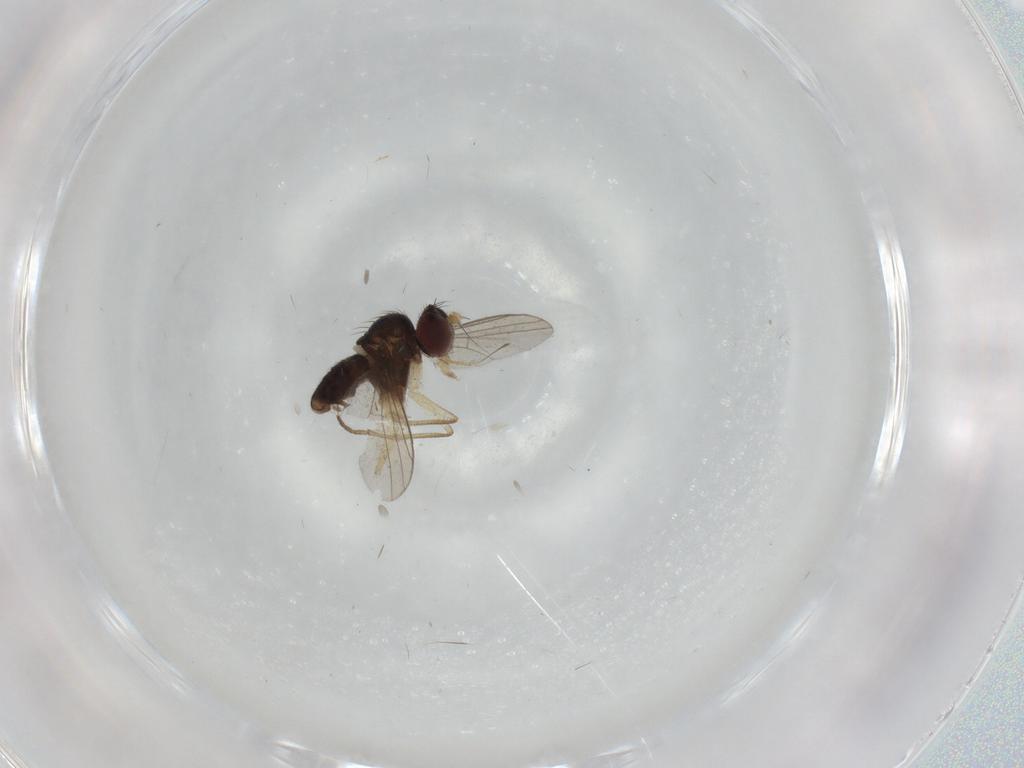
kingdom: Animalia
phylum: Arthropoda
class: Insecta
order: Diptera
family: Dolichopodidae
